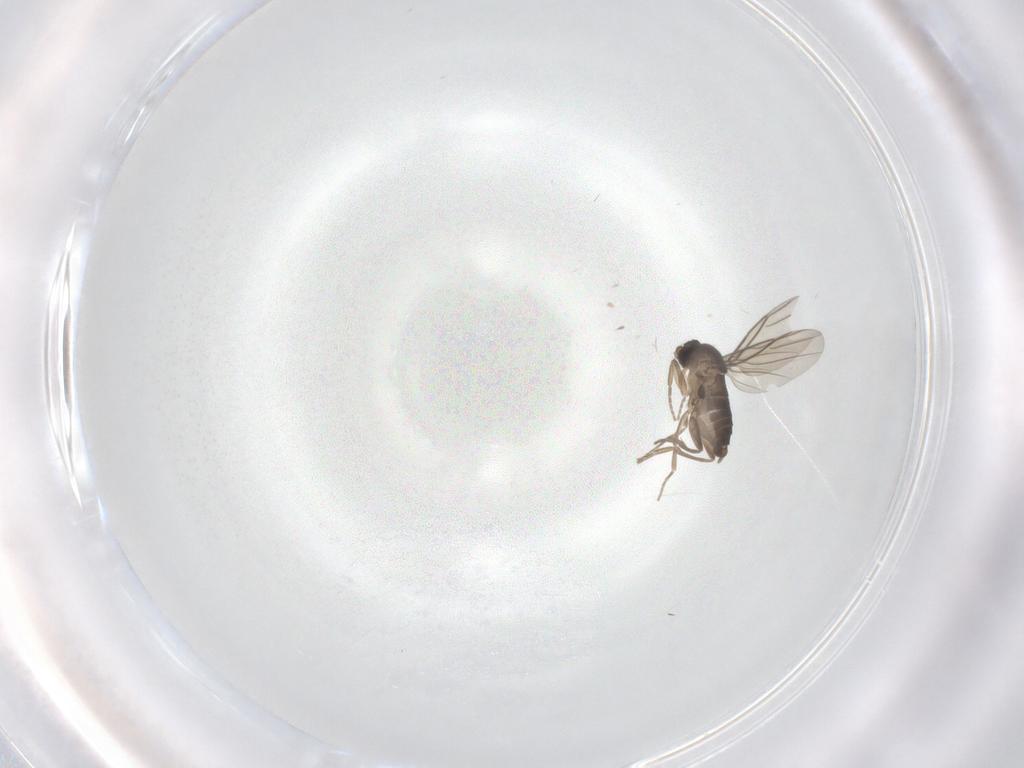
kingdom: Animalia
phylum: Arthropoda
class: Insecta
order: Diptera
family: Phoridae
